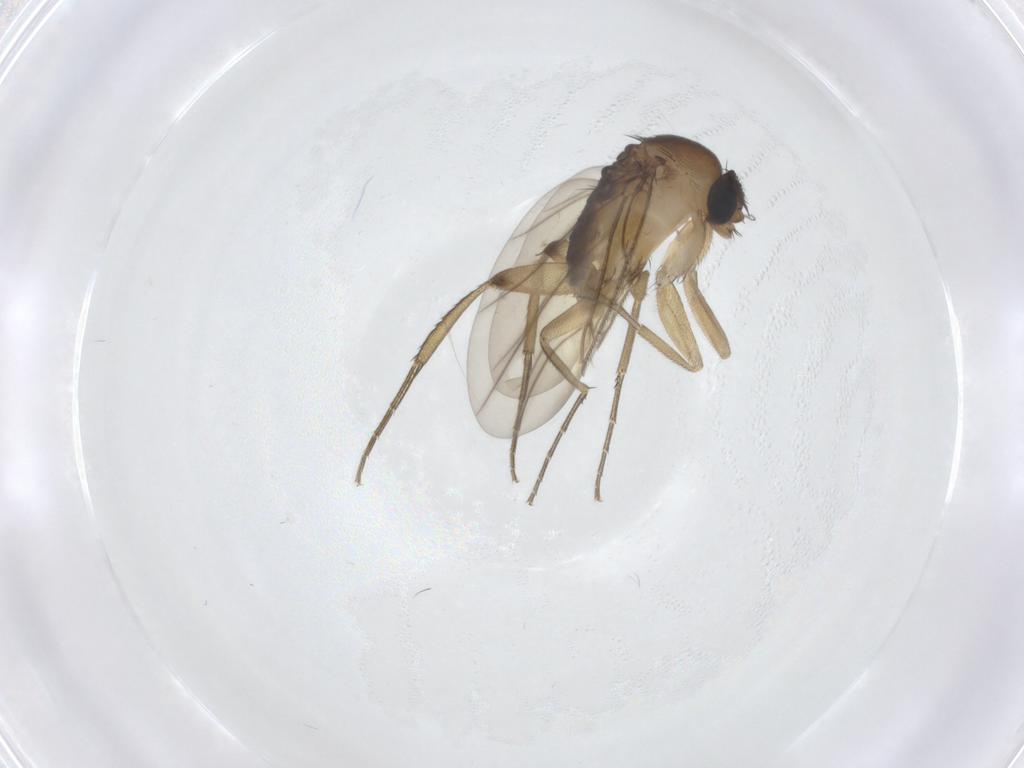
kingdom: Animalia
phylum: Arthropoda
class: Insecta
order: Diptera
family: Phoridae
